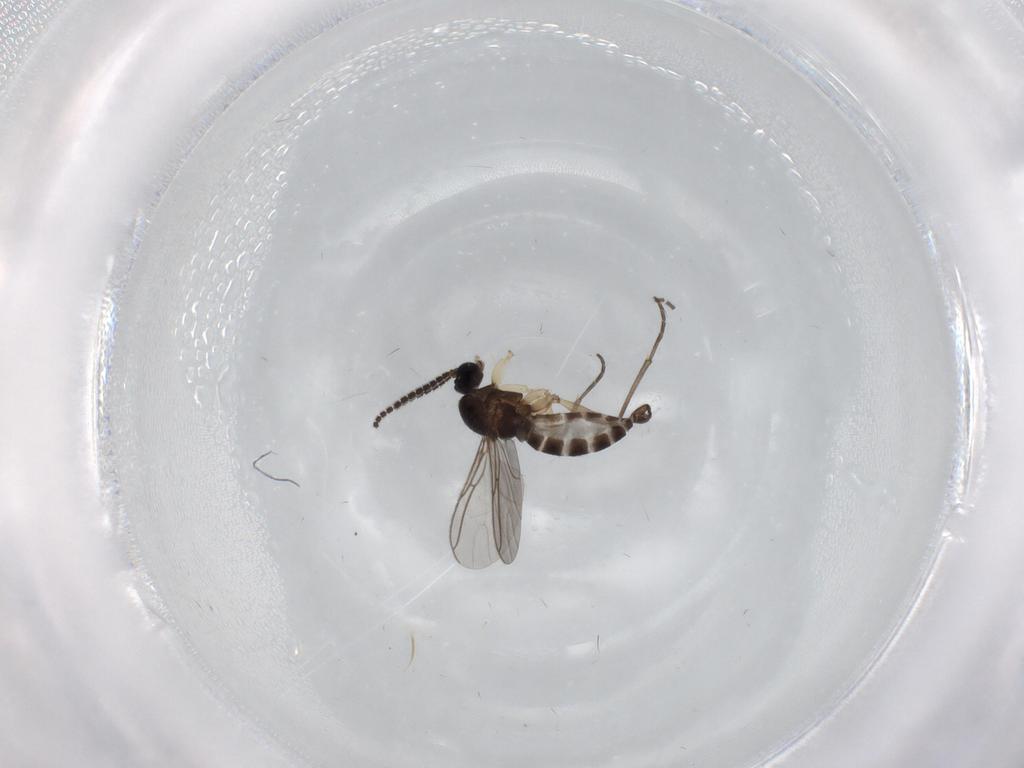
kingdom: Animalia
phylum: Arthropoda
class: Insecta
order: Diptera
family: Sciaridae
